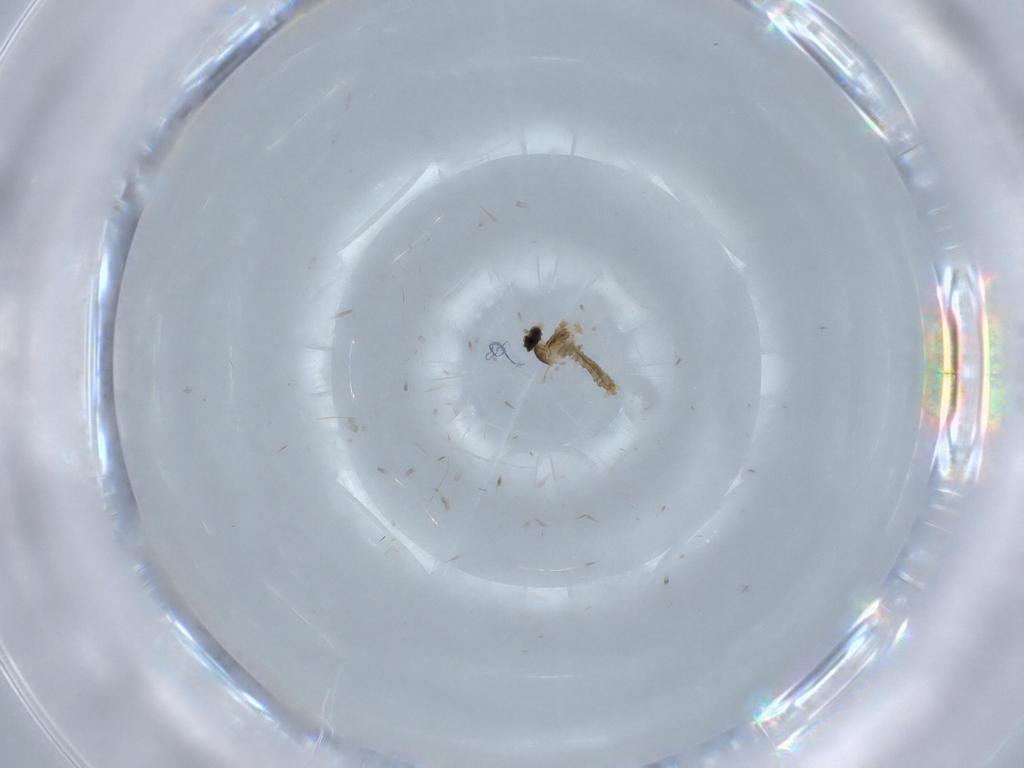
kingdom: Animalia
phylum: Arthropoda
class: Insecta
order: Diptera
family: Cecidomyiidae
